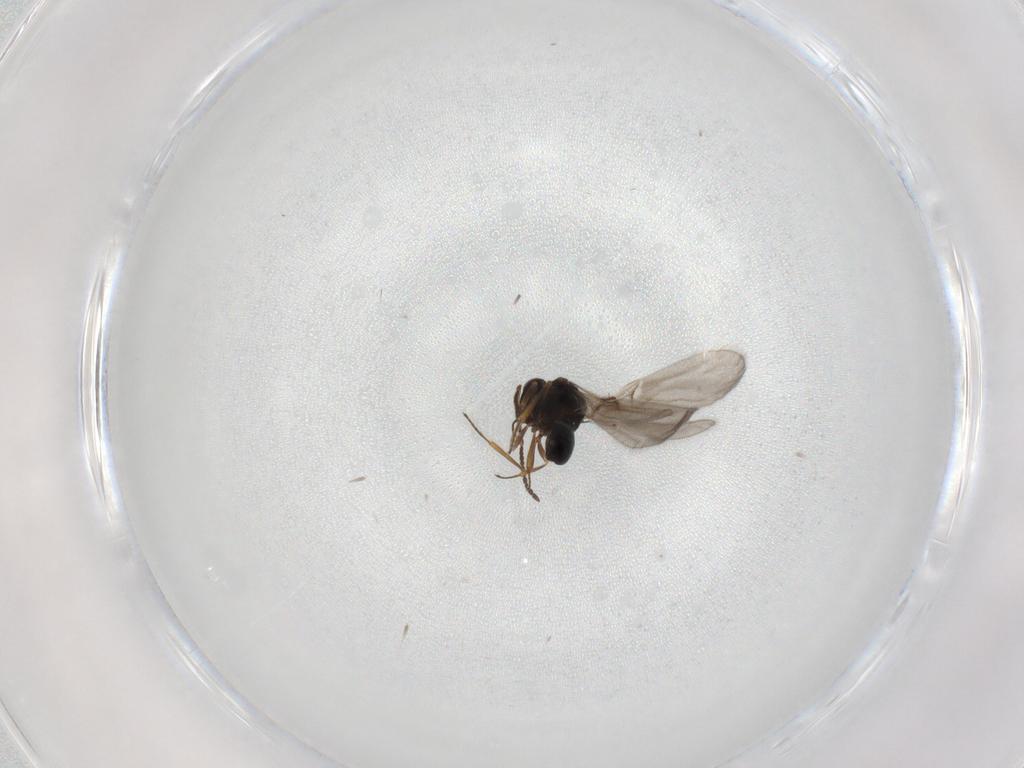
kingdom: Animalia
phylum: Arthropoda
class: Insecta
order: Hymenoptera
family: Scelionidae
